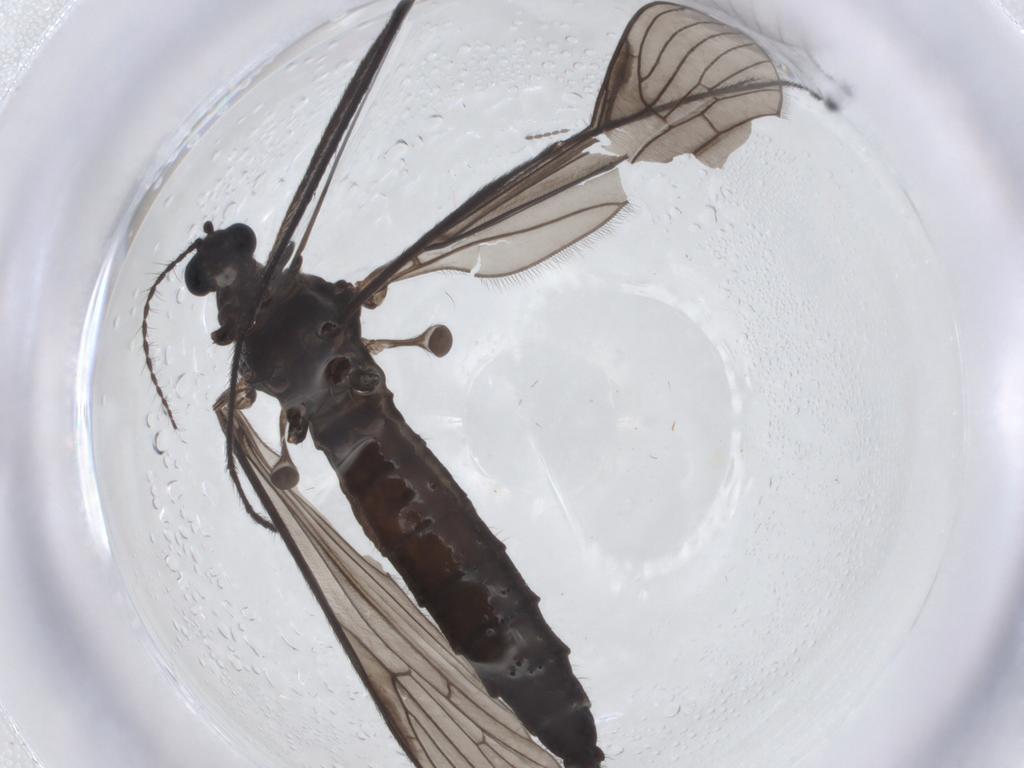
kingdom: Animalia
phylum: Arthropoda
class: Insecta
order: Diptera
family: Limoniidae
